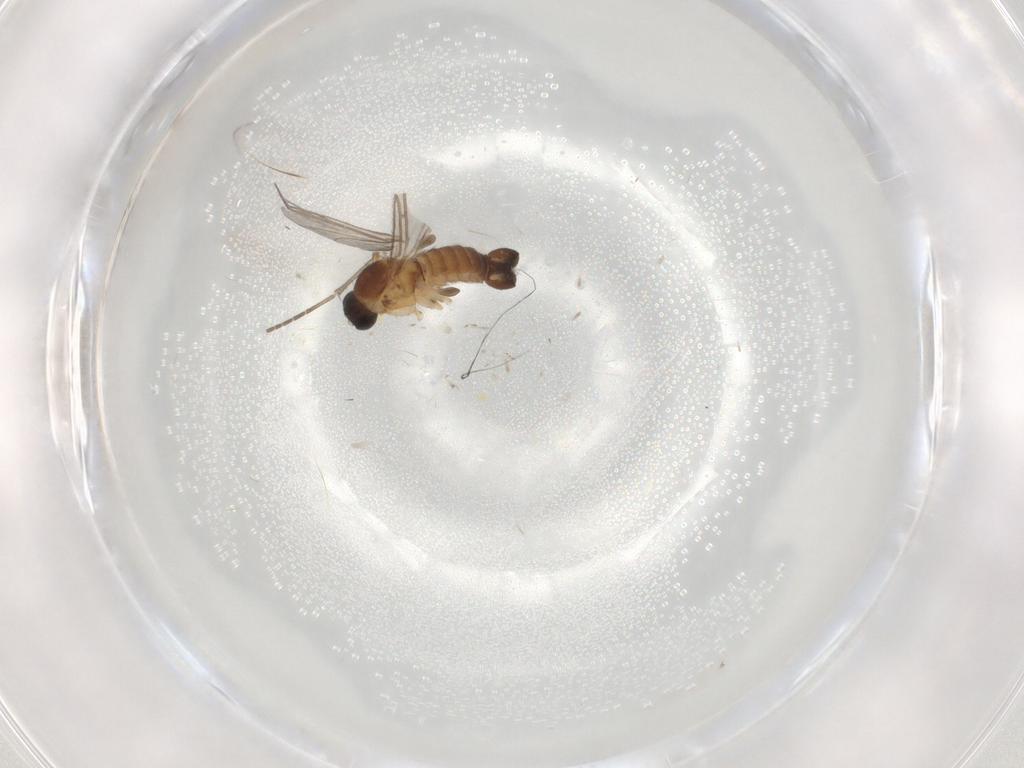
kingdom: Animalia
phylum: Arthropoda
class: Insecta
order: Diptera
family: Sciaridae
